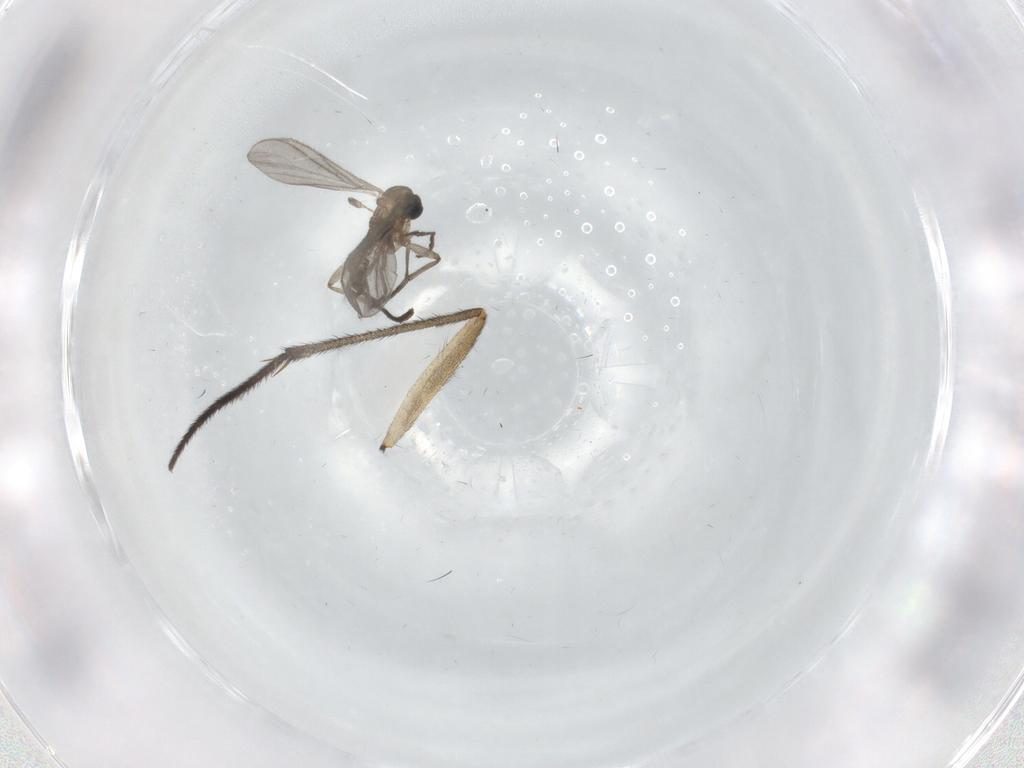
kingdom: Animalia
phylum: Arthropoda
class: Insecta
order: Diptera
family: Sciaridae
